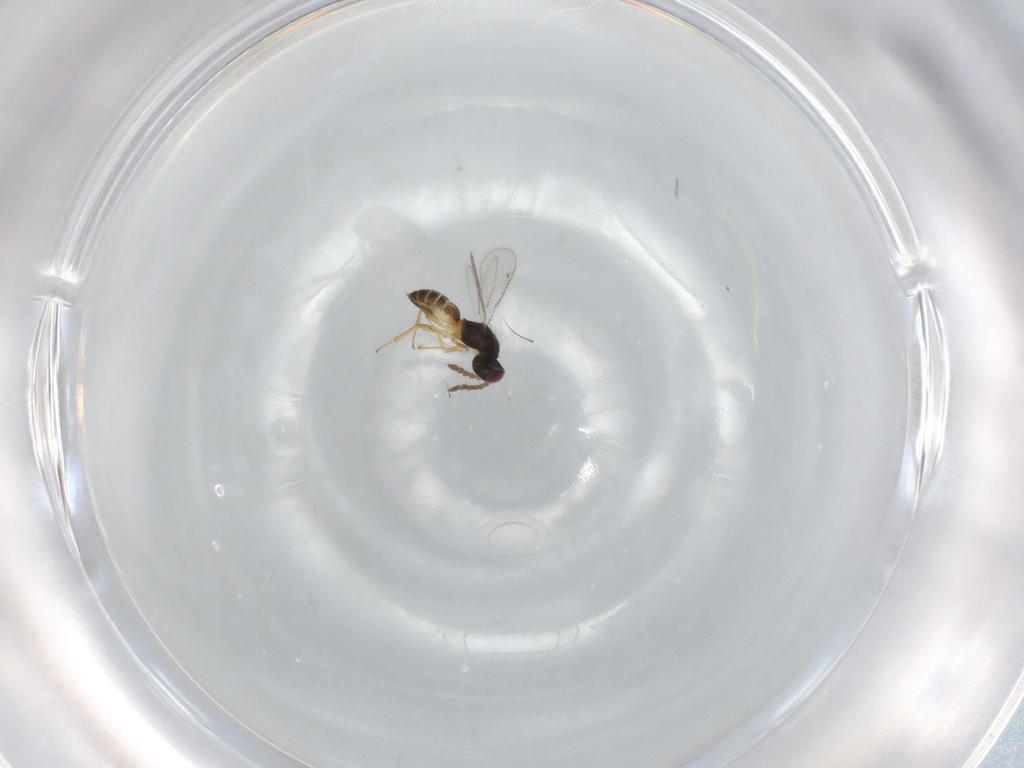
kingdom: Animalia
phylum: Arthropoda
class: Insecta
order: Hymenoptera
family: Eulophidae
